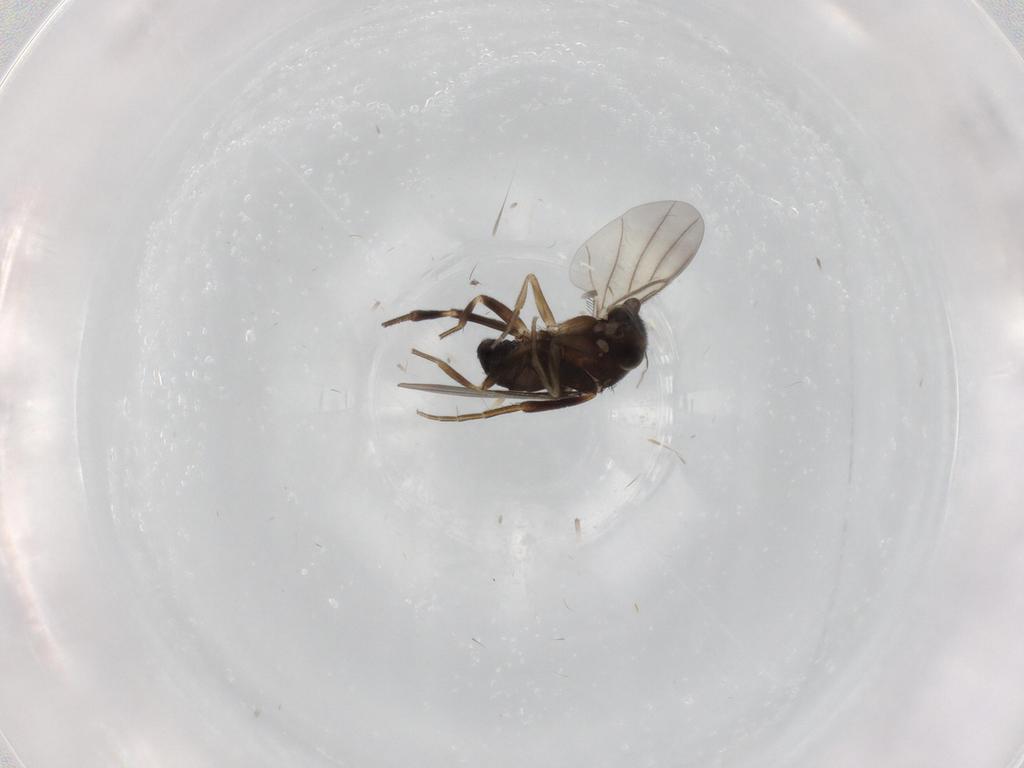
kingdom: Animalia
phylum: Arthropoda
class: Insecta
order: Diptera
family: Phoridae
